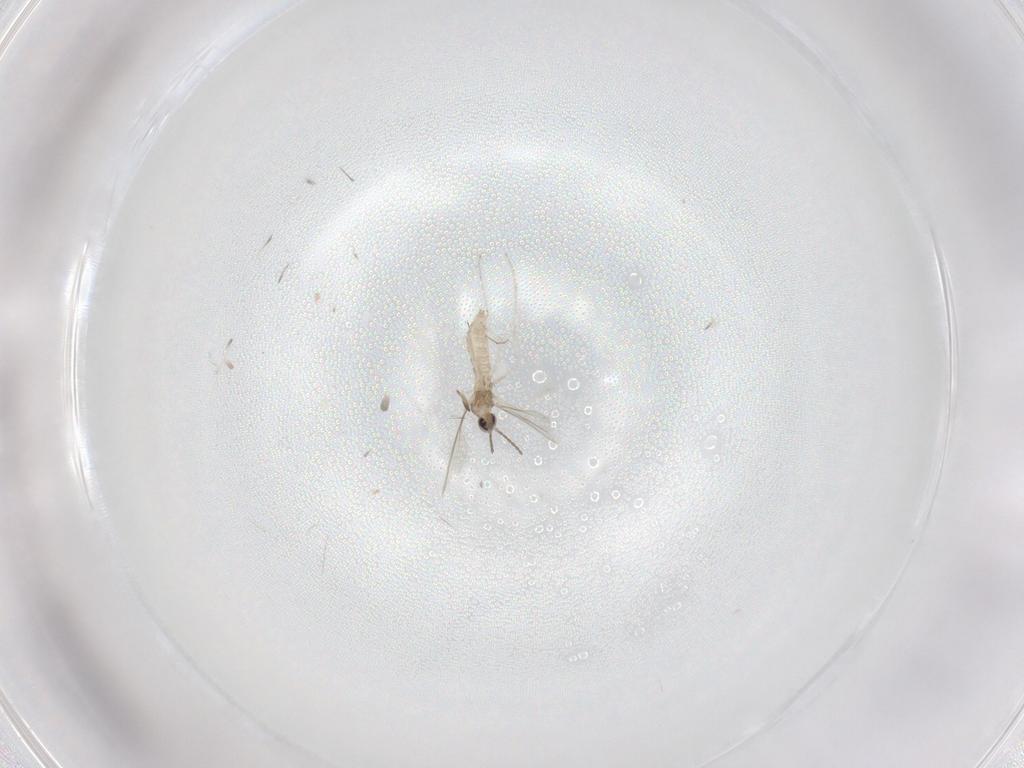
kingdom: Animalia
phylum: Arthropoda
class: Insecta
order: Diptera
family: Cecidomyiidae
